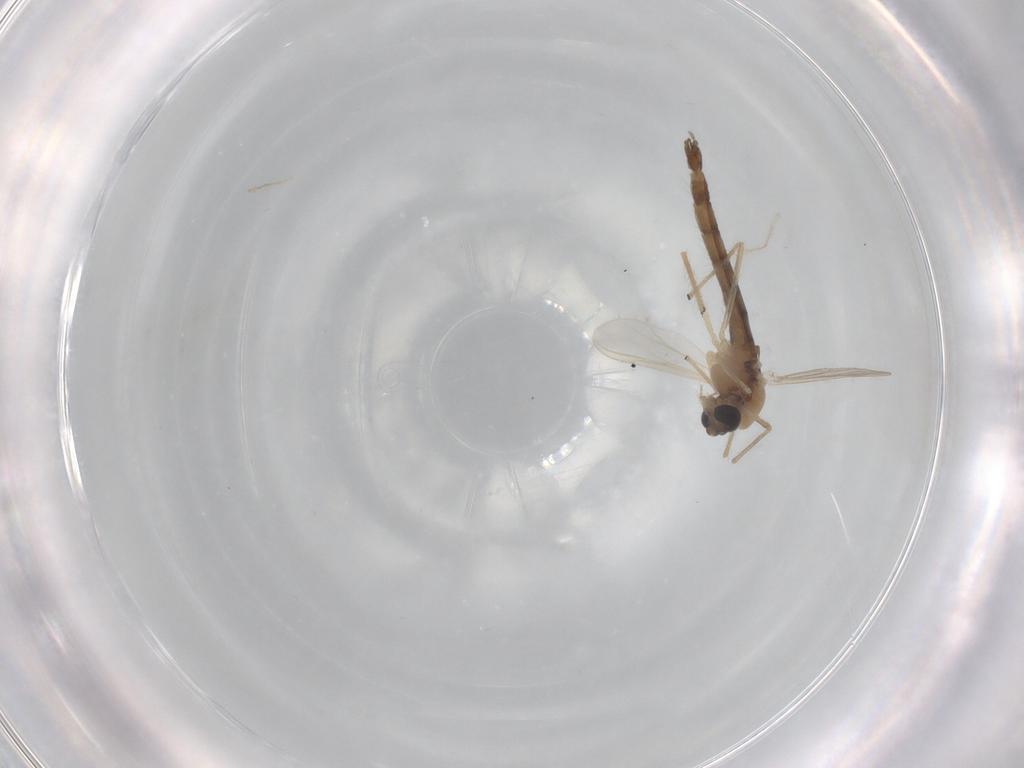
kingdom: Animalia
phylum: Arthropoda
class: Insecta
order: Diptera
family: Chironomidae
